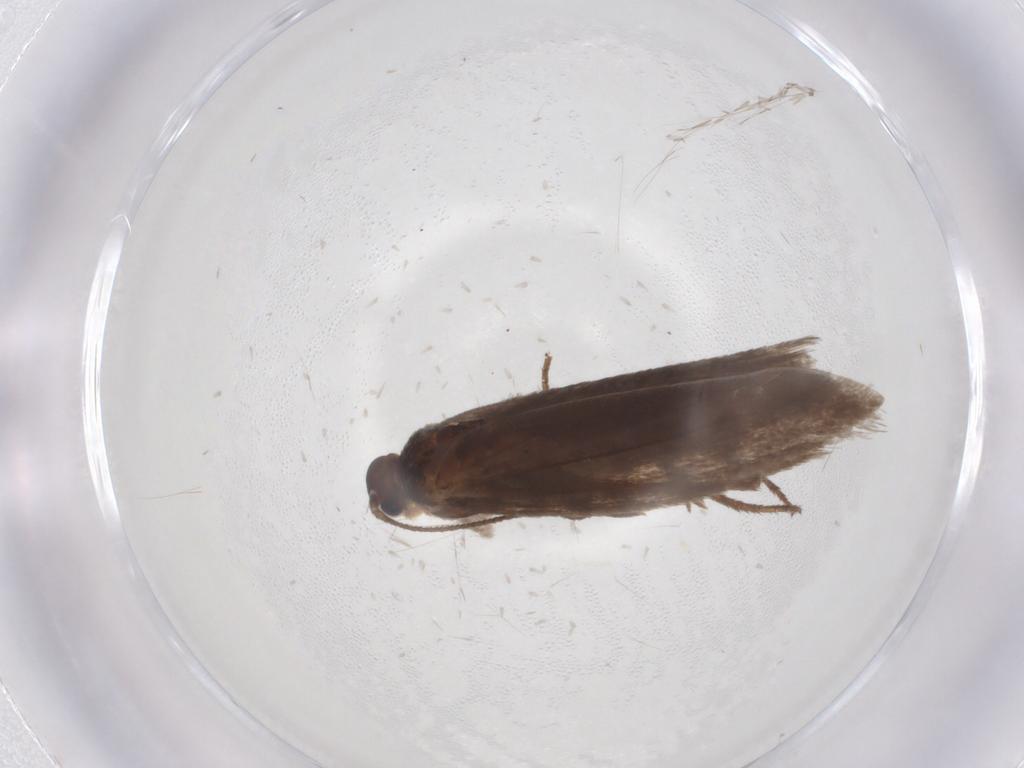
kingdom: Animalia
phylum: Arthropoda
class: Insecta
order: Lepidoptera
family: Limacodidae
